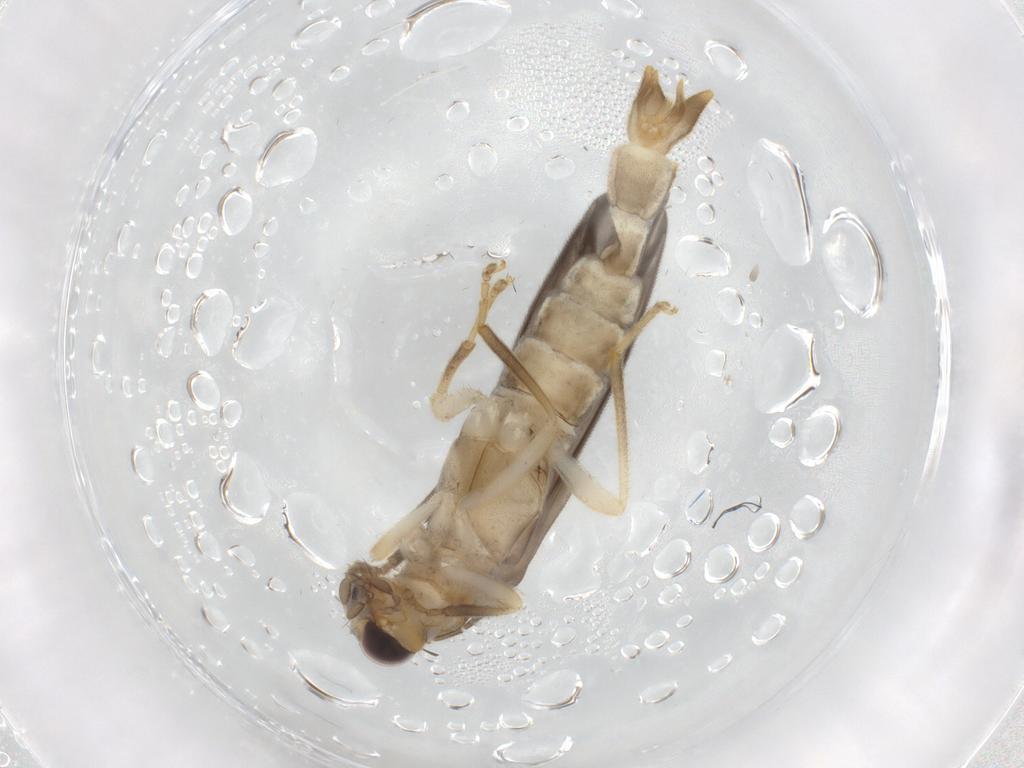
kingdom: Animalia
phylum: Arthropoda
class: Insecta
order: Coleoptera
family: Cantharidae
